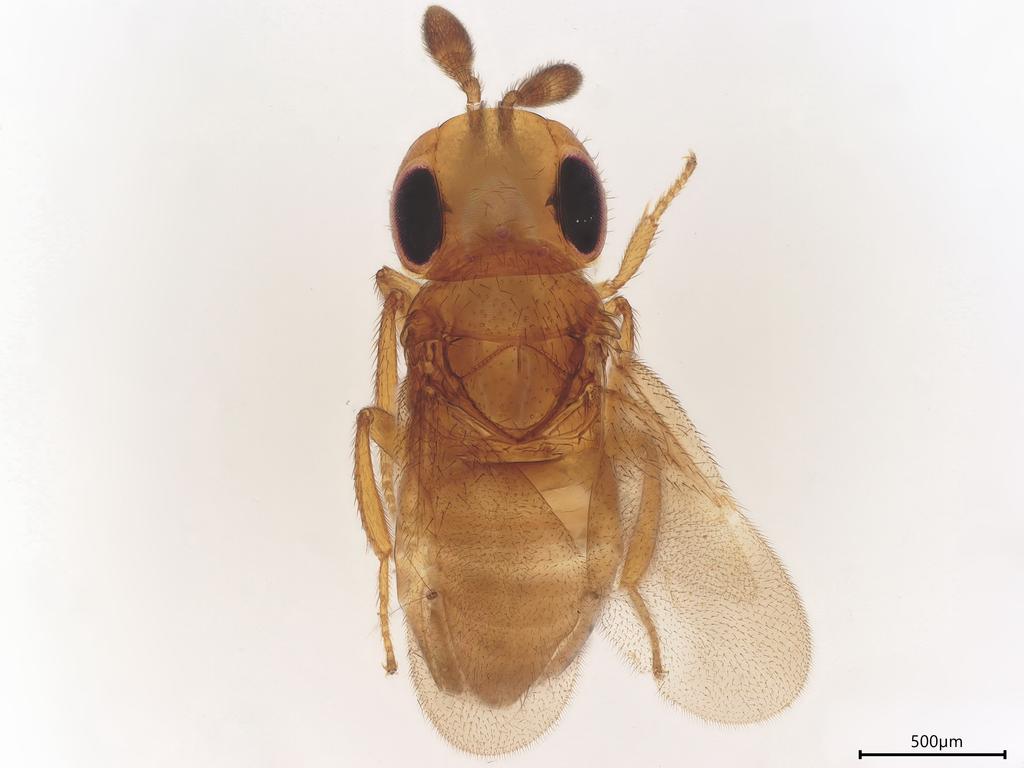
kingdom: Animalia
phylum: Arthropoda
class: Insecta
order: Hymenoptera
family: Encyrtidae
